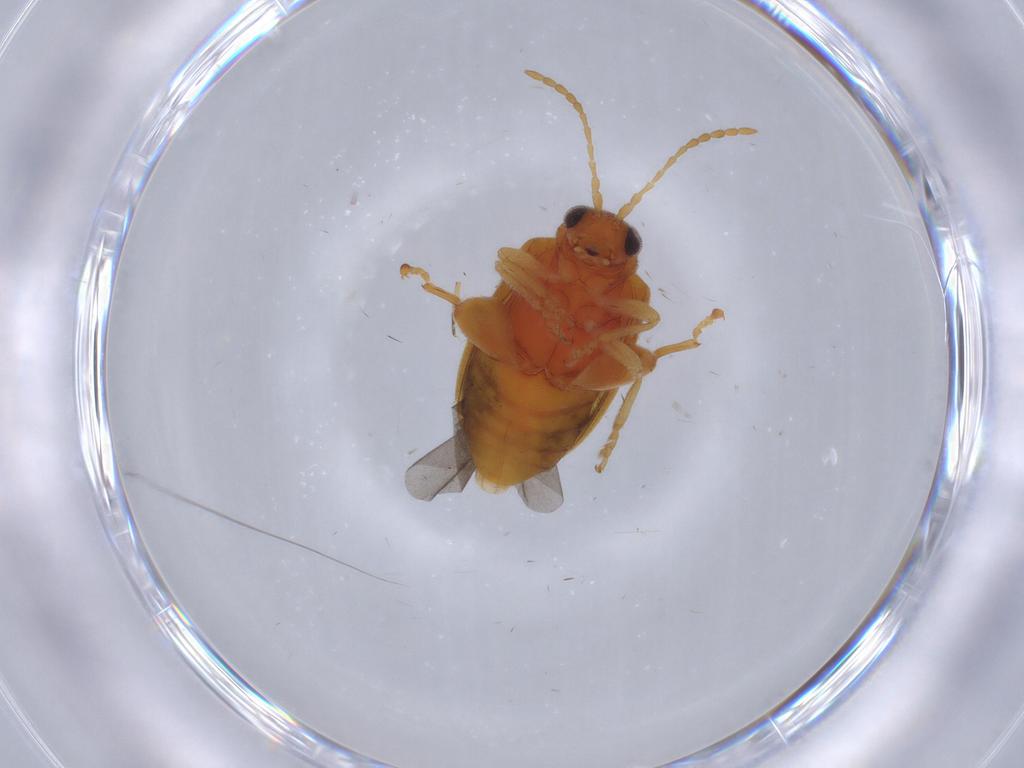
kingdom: Animalia
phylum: Arthropoda
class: Insecta
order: Coleoptera
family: Chrysomelidae
